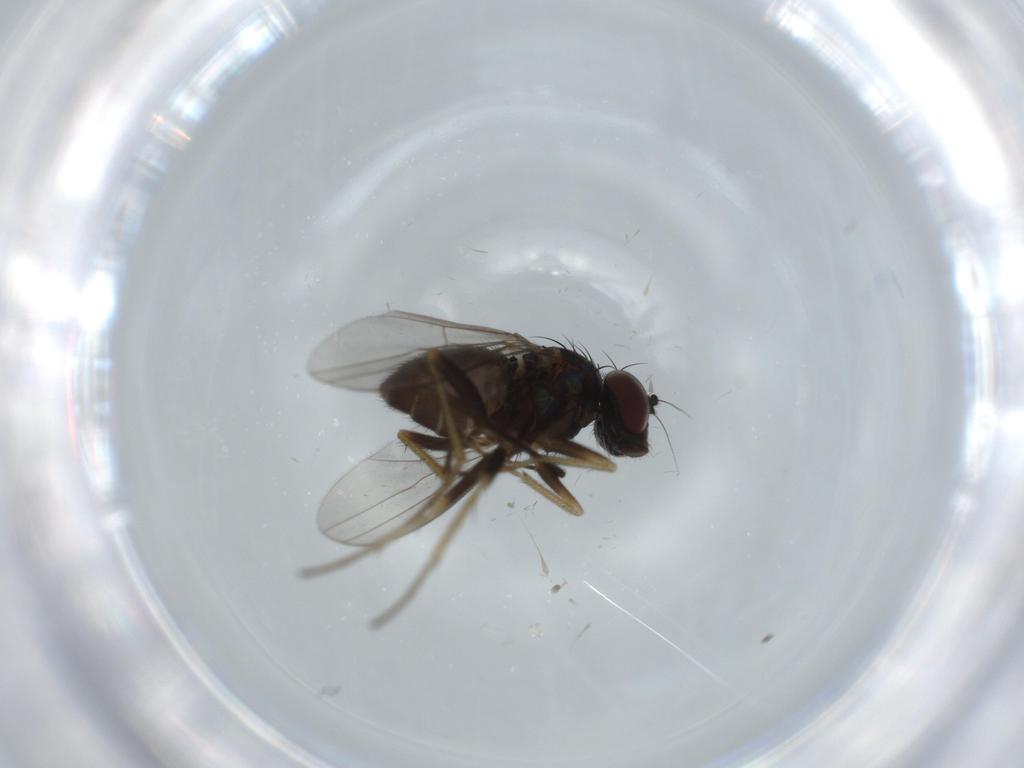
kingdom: Animalia
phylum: Arthropoda
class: Insecta
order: Diptera
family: Dolichopodidae
